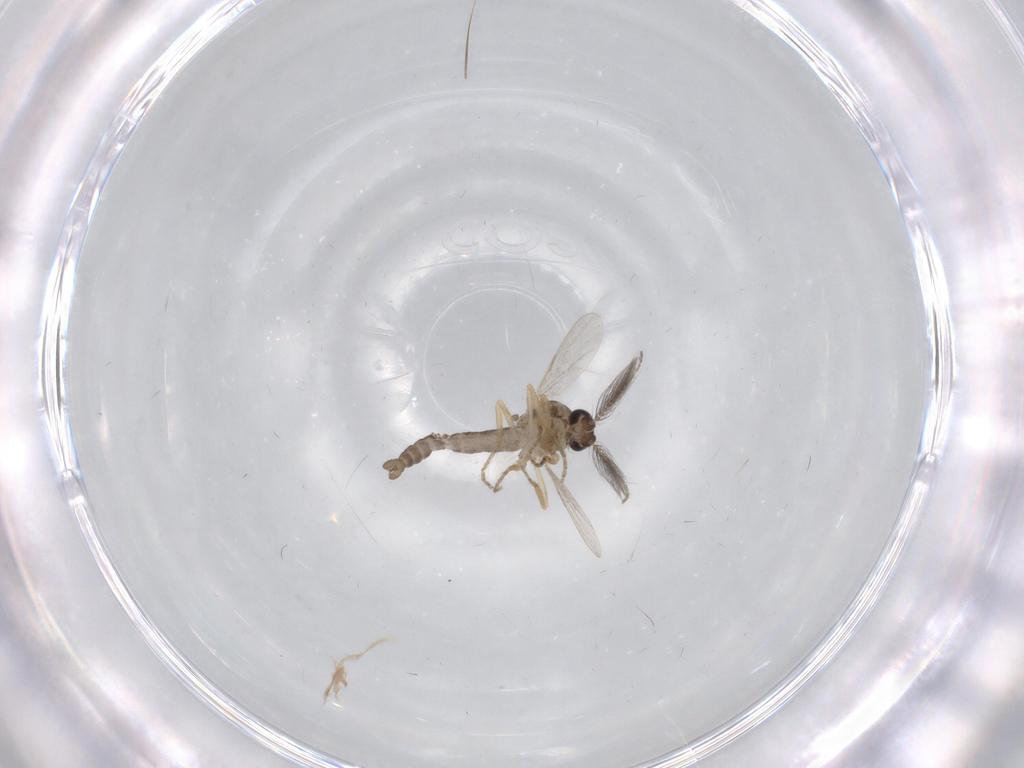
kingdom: Animalia
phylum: Arthropoda
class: Insecta
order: Diptera
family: Ceratopogonidae
